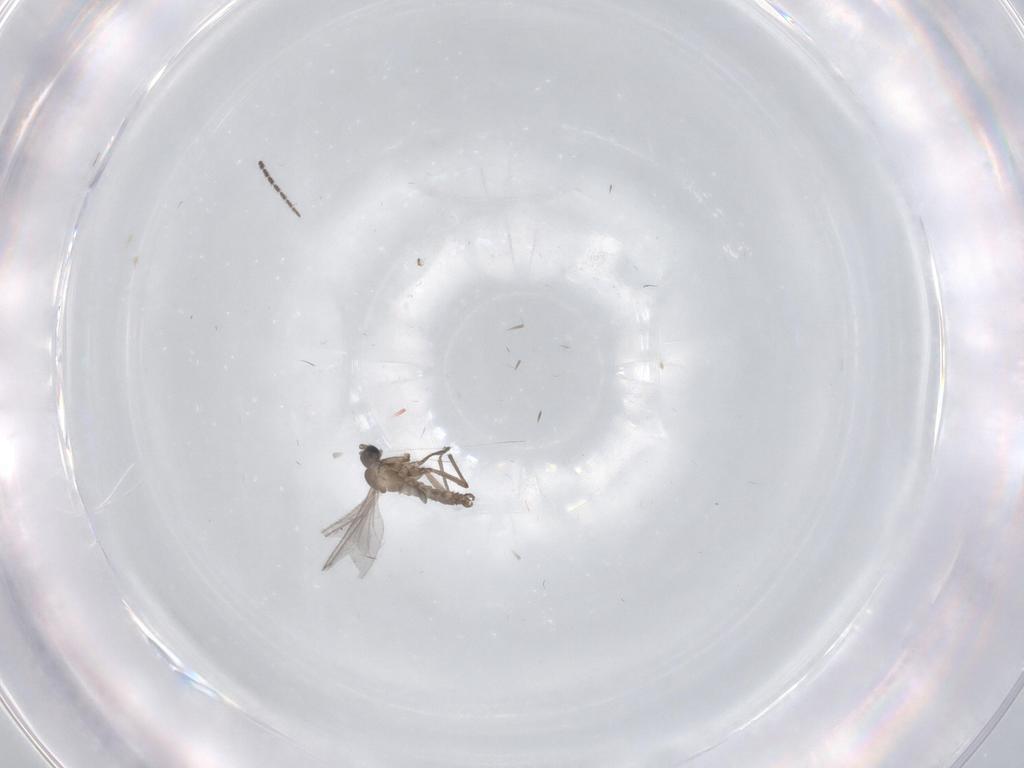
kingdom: Animalia
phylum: Arthropoda
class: Insecta
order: Diptera
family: Sciaridae
